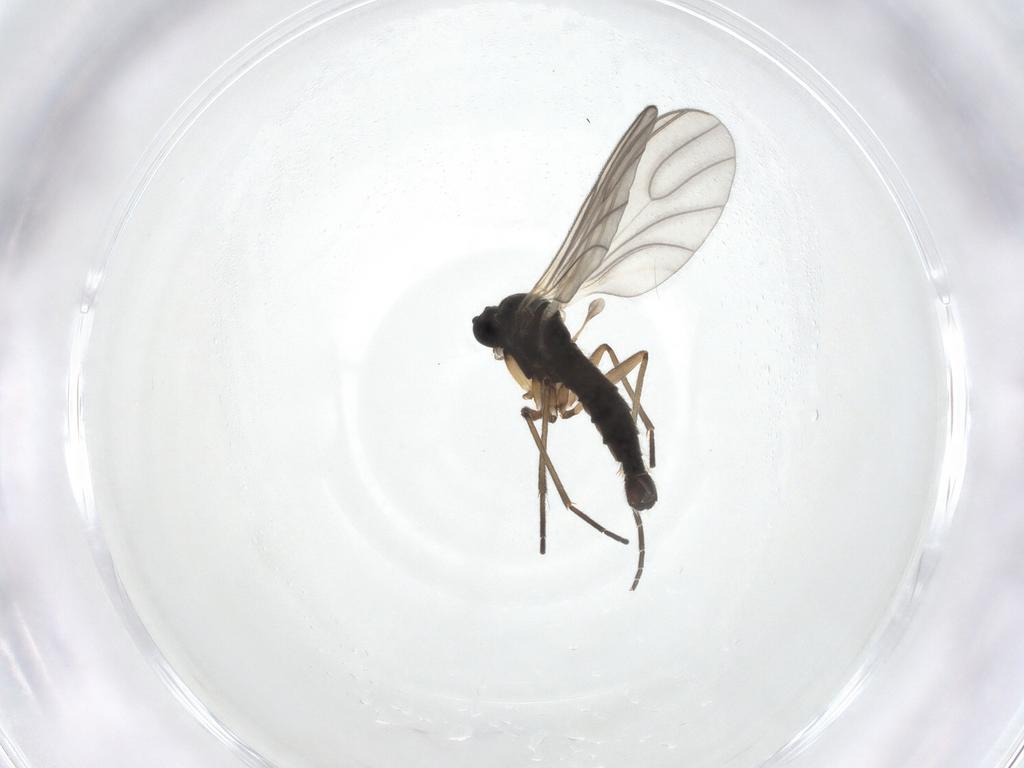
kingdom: Animalia
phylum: Arthropoda
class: Insecta
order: Diptera
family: Sciaridae
